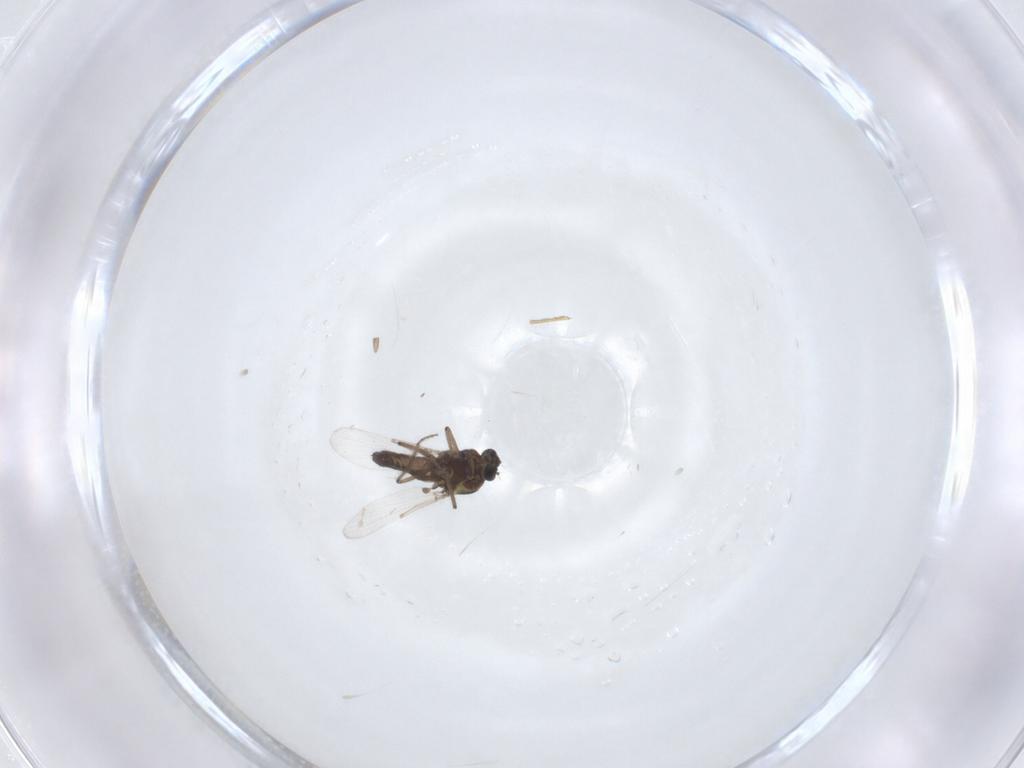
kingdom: Animalia
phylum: Arthropoda
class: Insecta
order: Diptera
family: Ceratopogonidae
